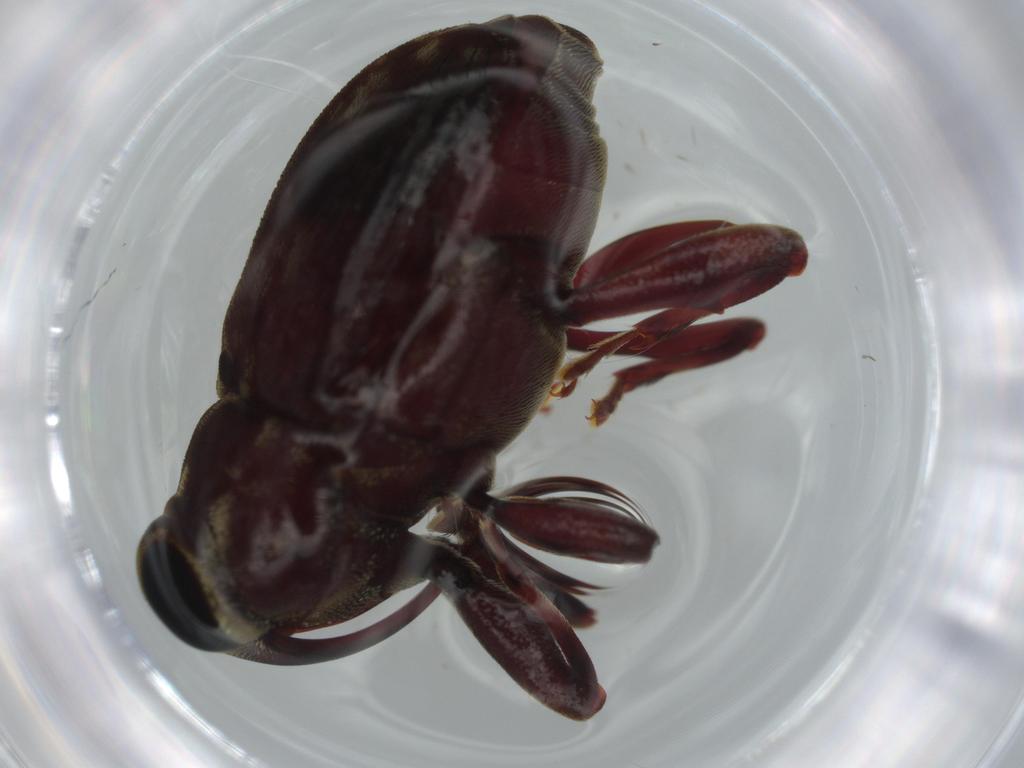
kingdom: Animalia
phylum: Arthropoda
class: Insecta
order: Coleoptera
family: Curculionidae
